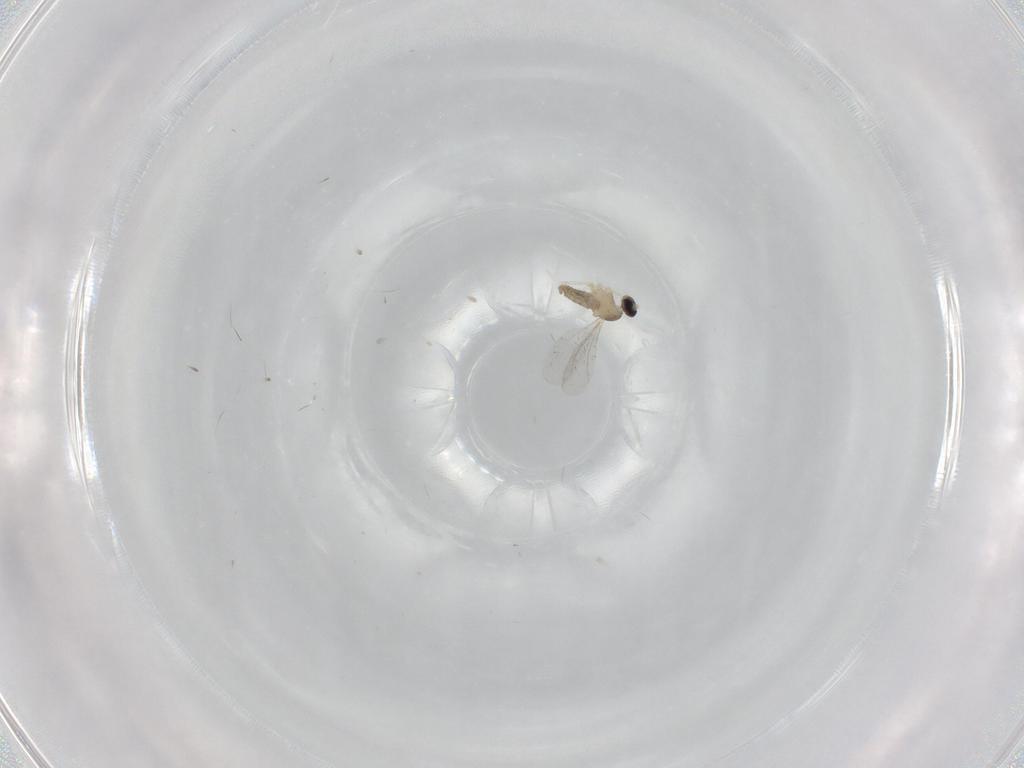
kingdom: Animalia
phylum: Arthropoda
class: Insecta
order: Diptera
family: Cecidomyiidae
